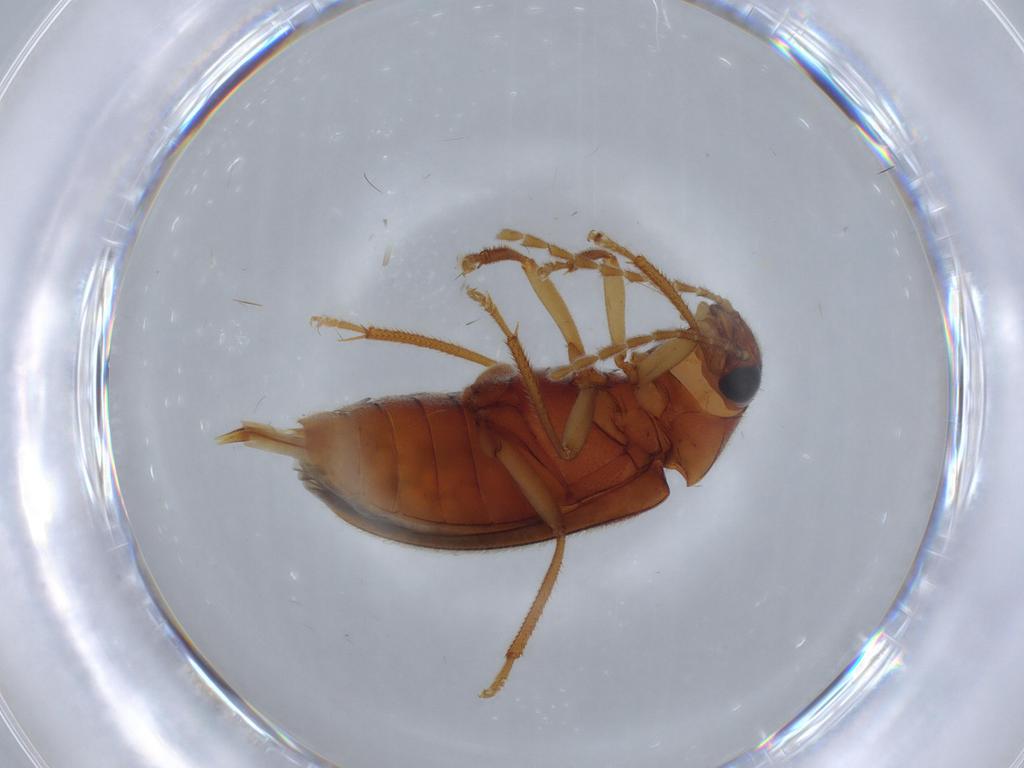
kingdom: Animalia
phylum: Arthropoda
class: Insecta
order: Coleoptera
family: Ptilodactylidae
